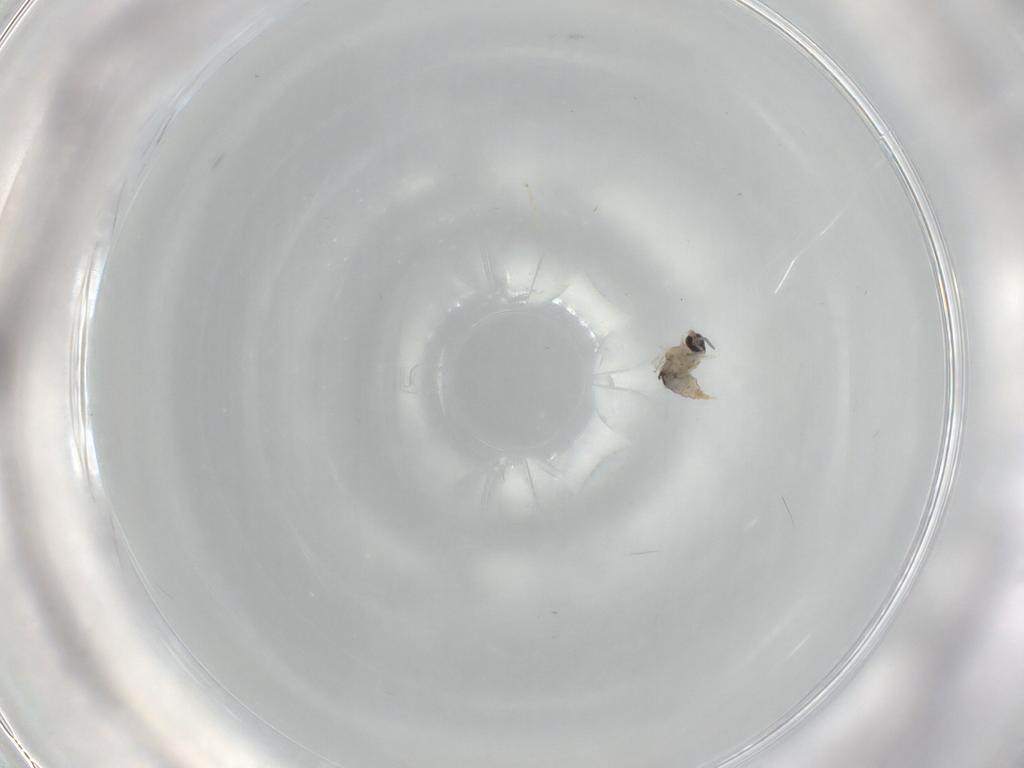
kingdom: Animalia
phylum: Arthropoda
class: Insecta
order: Diptera
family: Cecidomyiidae
